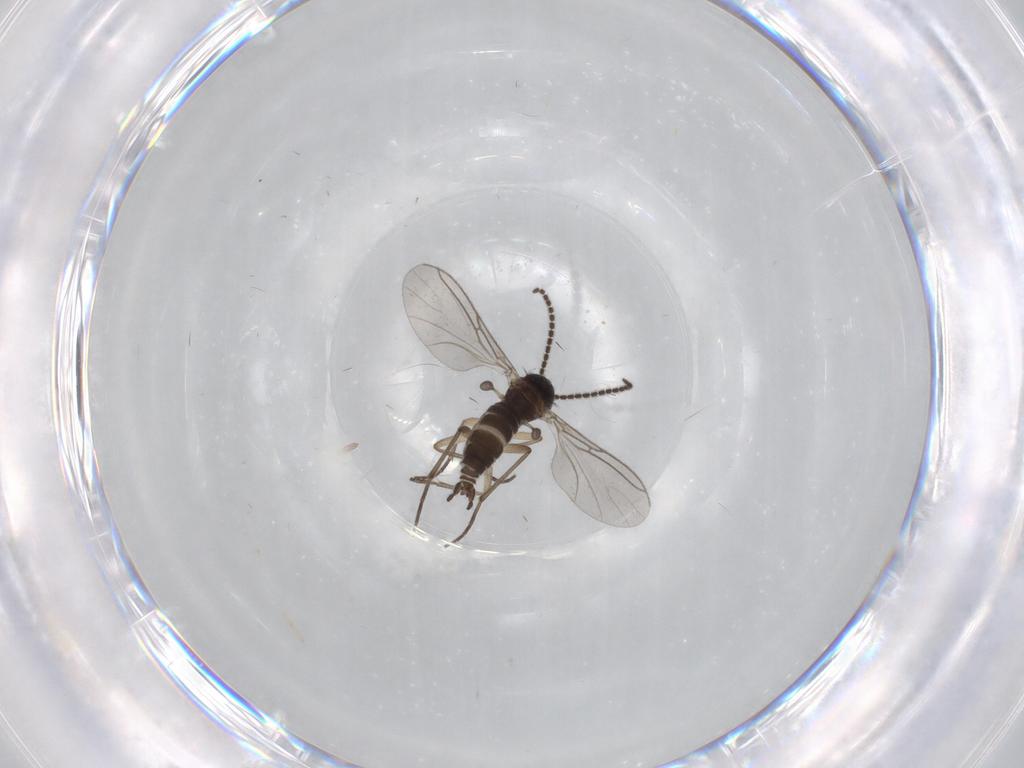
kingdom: Animalia
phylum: Arthropoda
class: Insecta
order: Diptera
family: Sciaridae
